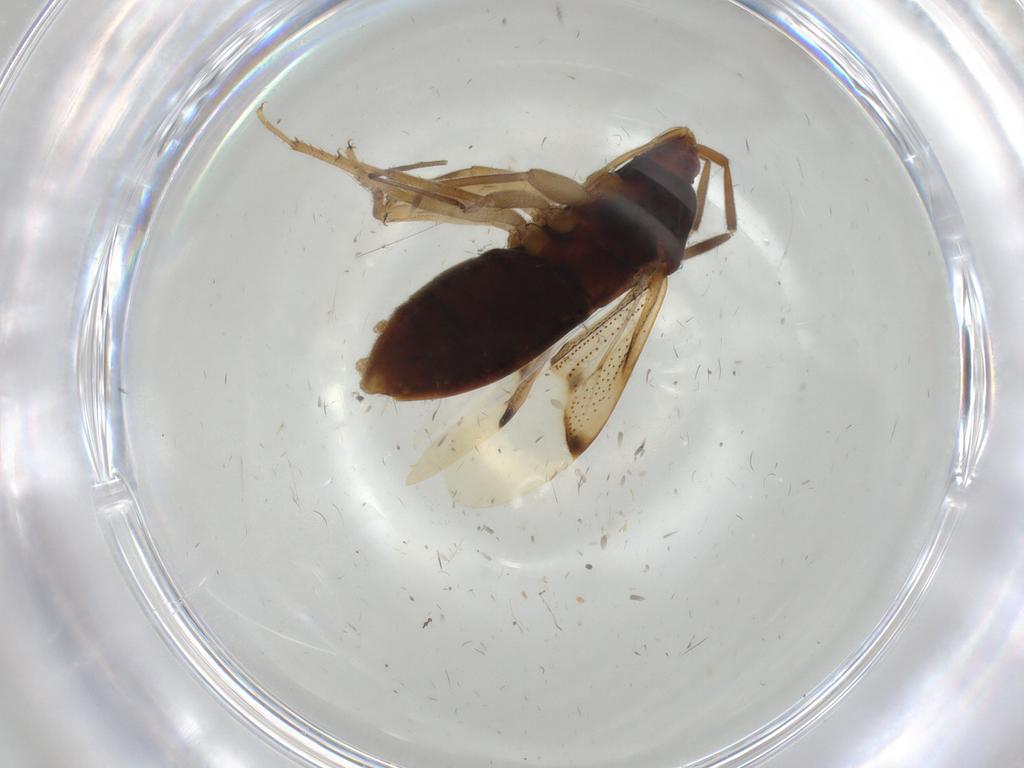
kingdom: Animalia
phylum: Arthropoda
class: Insecta
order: Hemiptera
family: Rhyparochromidae
